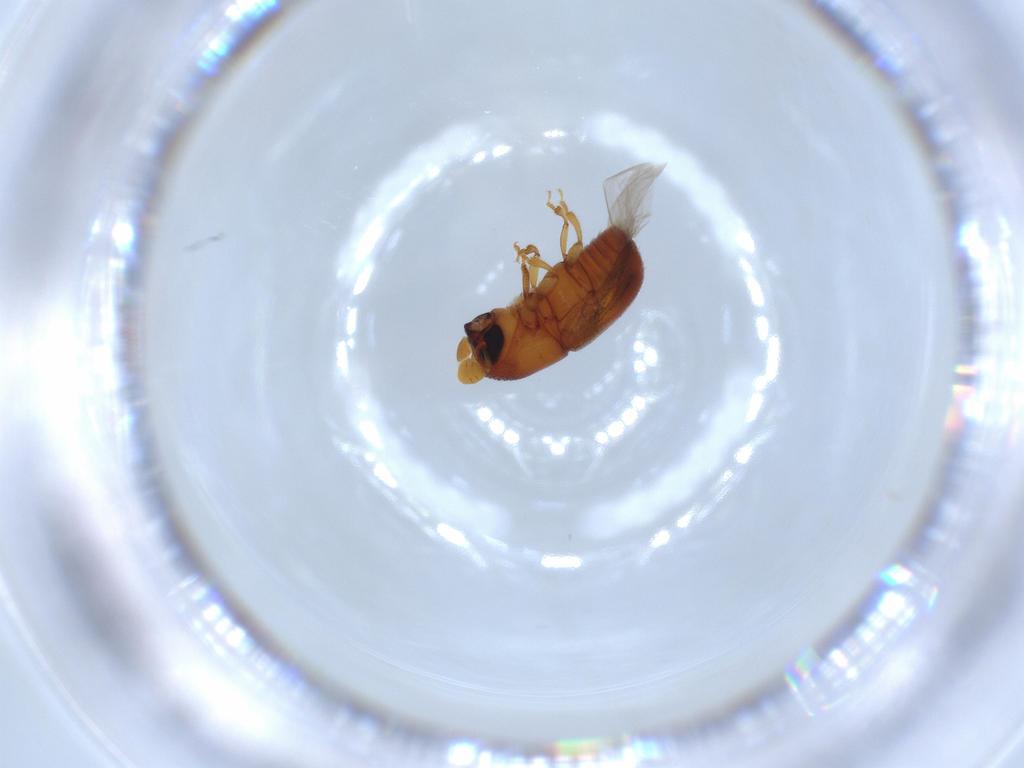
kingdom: Animalia
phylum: Arthropoda
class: Insecta
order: Coleoptera
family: Curculionidae
